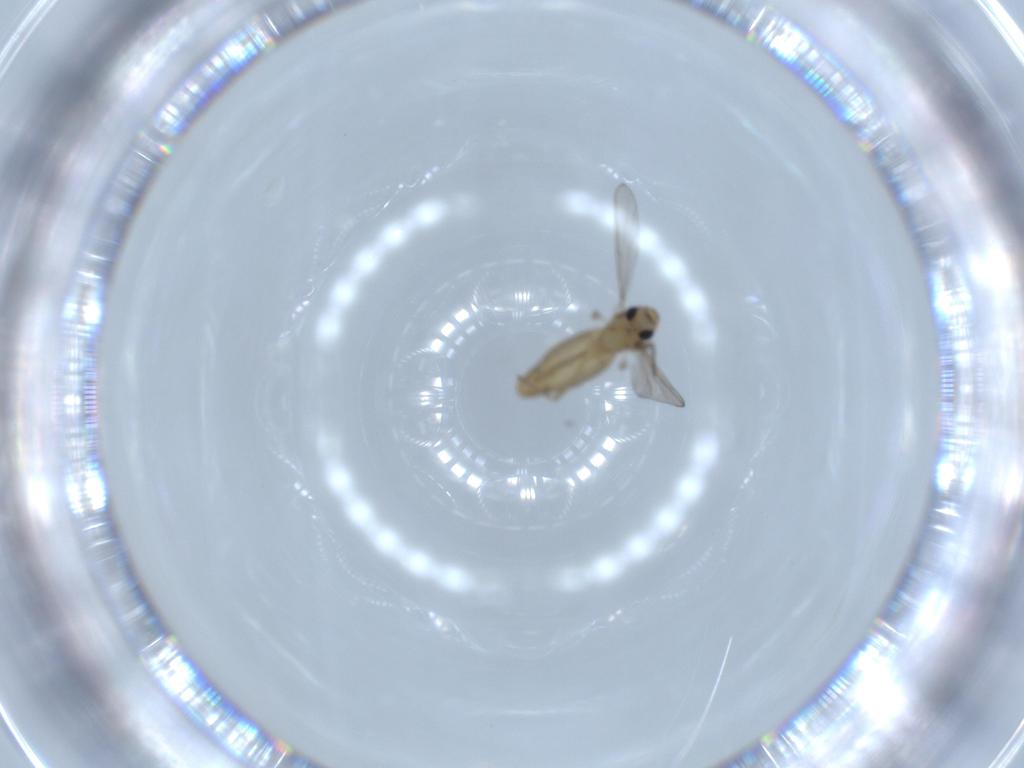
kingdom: Animalia
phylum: Arthropoda
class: Insecta
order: Diptera
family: Chironomidae
